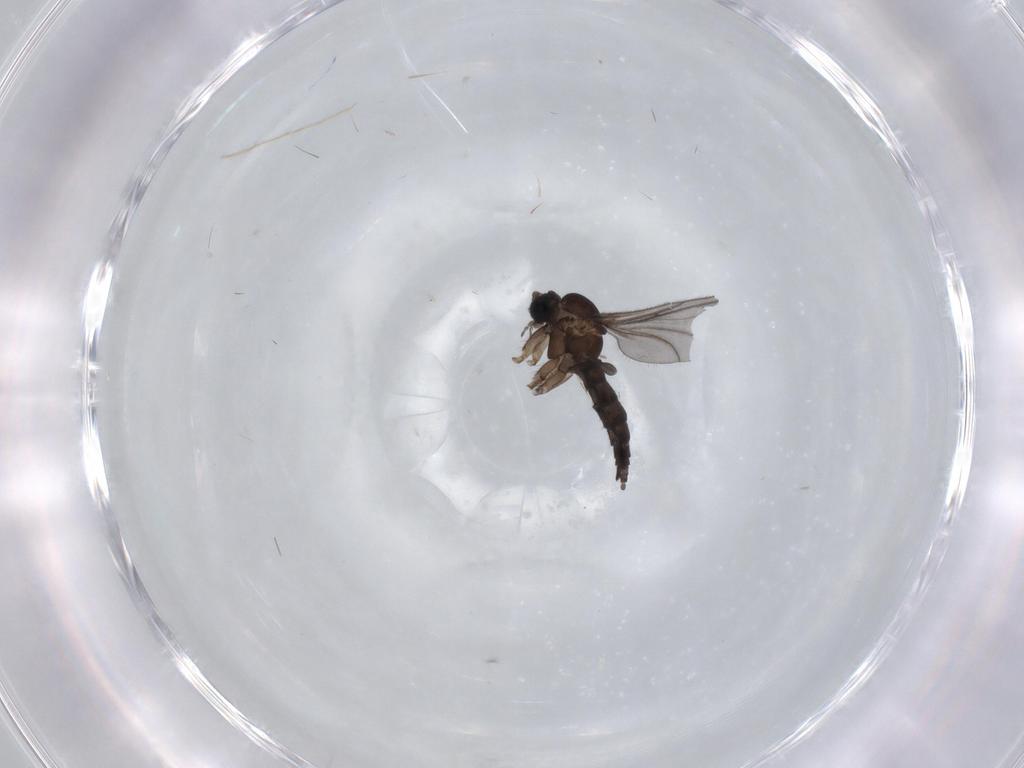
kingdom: Animalia
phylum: Arthropoda
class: Insecta
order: Diptera
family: Sciaridae
